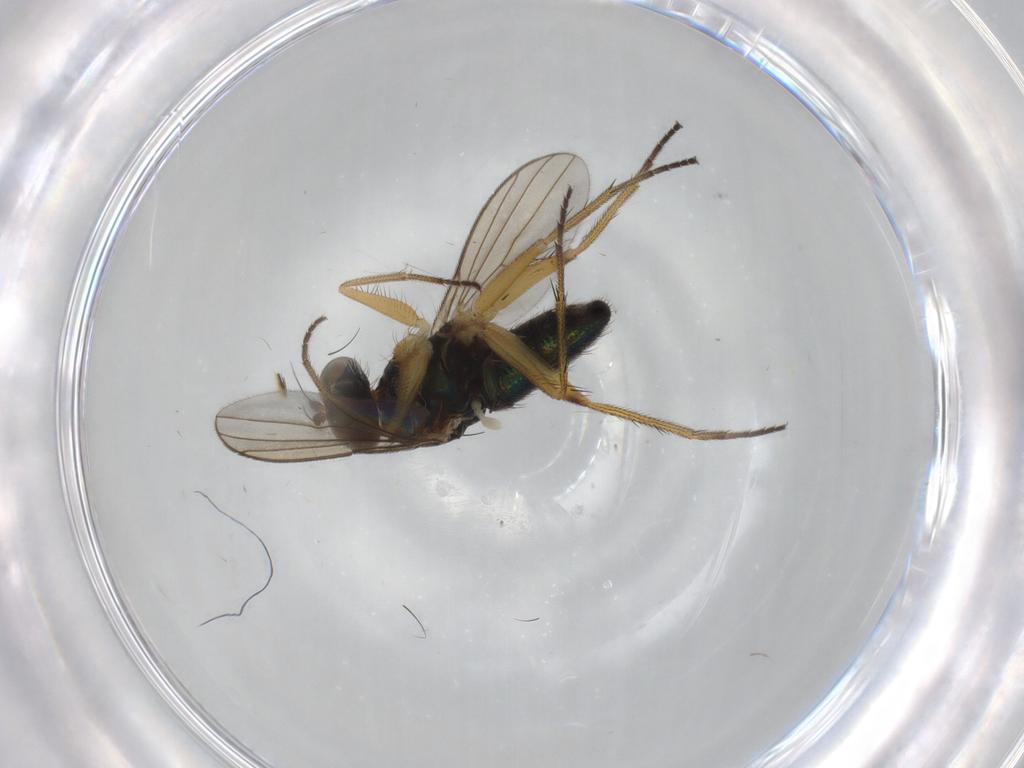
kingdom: Animalia
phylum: Arthropoda
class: Insecta
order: Diptera
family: Dolichopodidae
